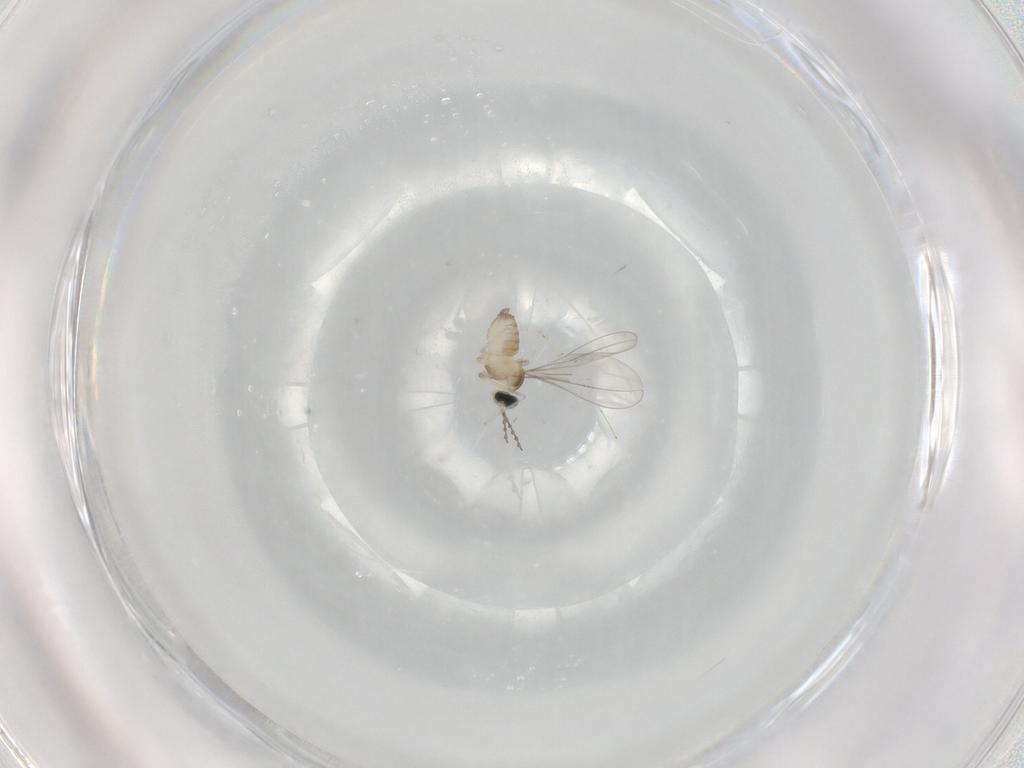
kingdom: Animalia
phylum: Arthropoda
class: Insecta
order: Diptera
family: Cecidomyiidae
